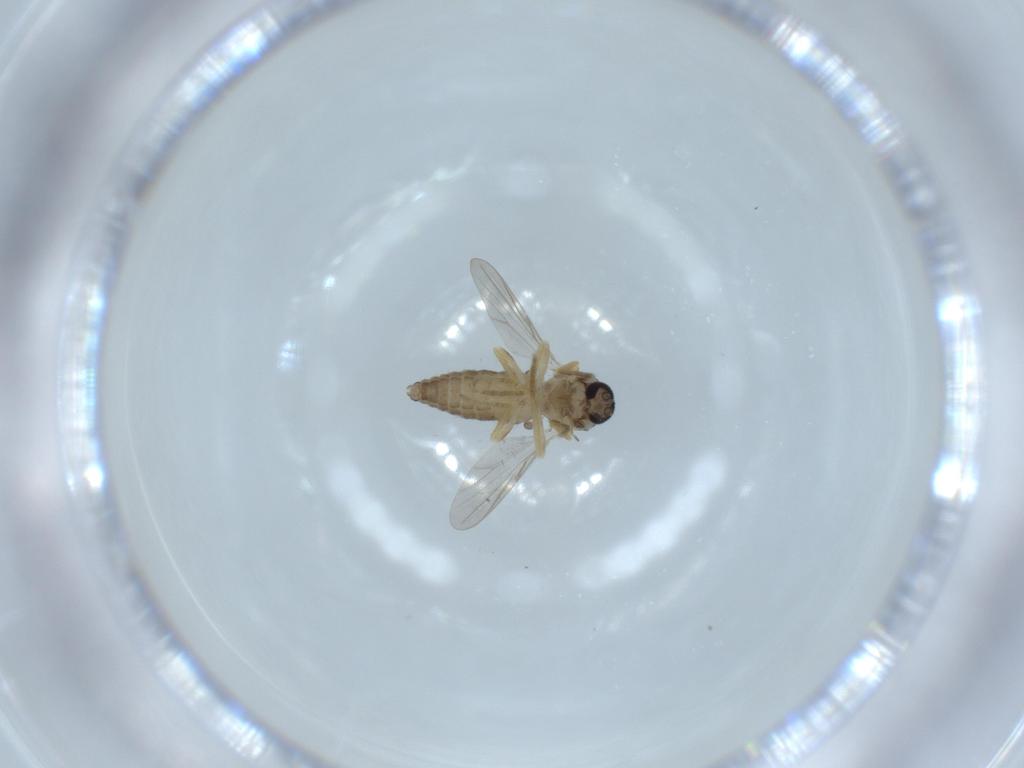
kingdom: Animalia
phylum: Arthropoda
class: Insecta
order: Diptera
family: Ceratopogonidae
